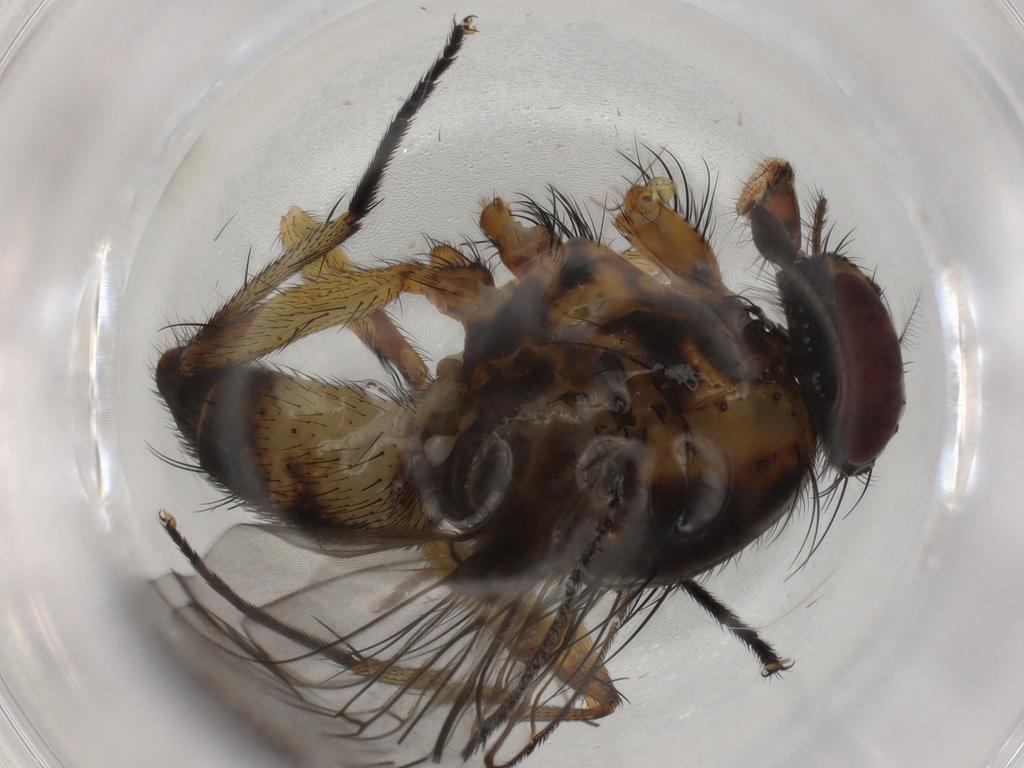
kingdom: Animalia
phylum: Arthropoda
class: Insecta
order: Diptera
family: Muscidae
